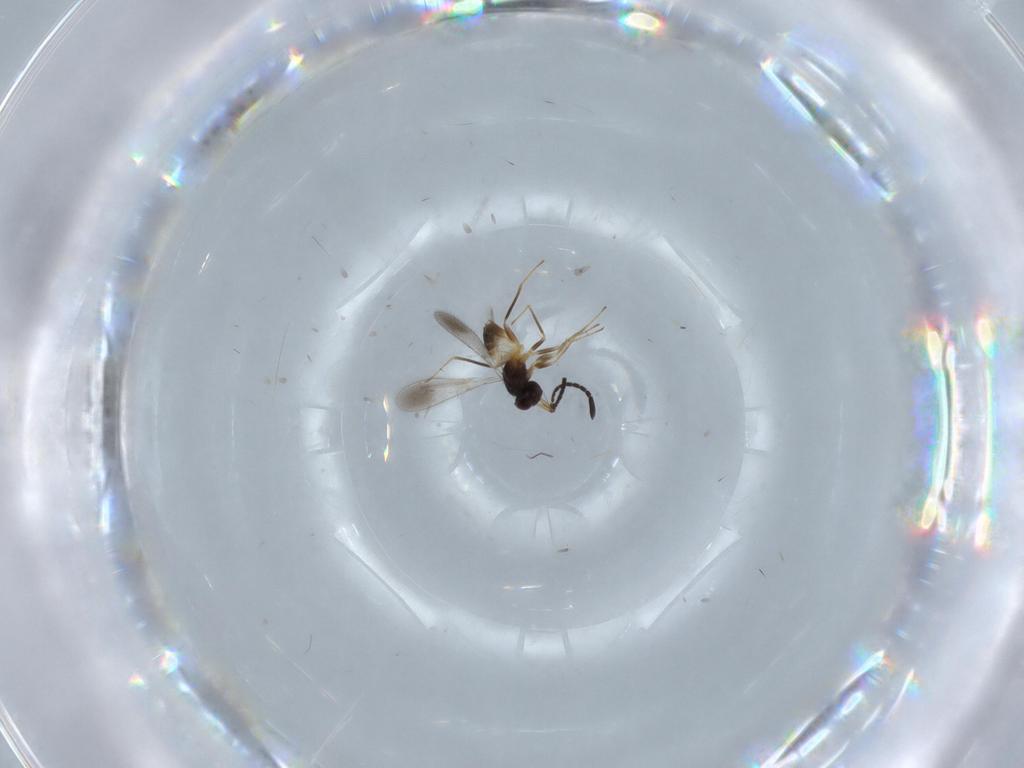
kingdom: Animalia
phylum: Arthropoda
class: Insecta
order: Hymenoptera
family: Mymaridae
